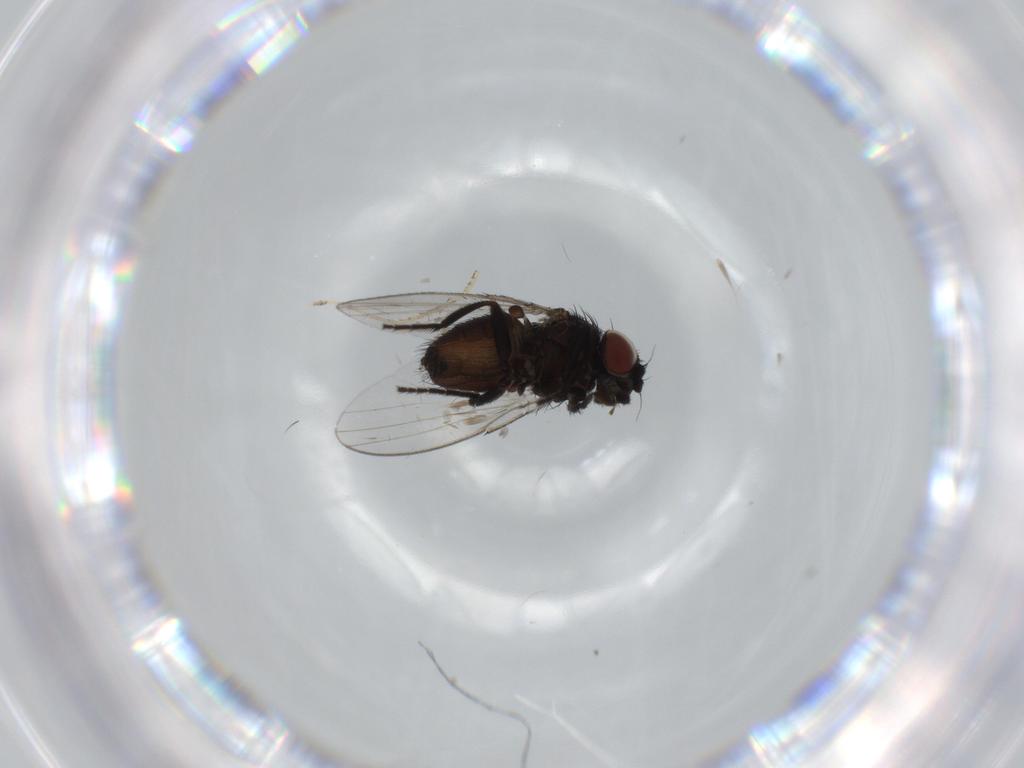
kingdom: Animalia
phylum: Arthropoda
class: Insecta
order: Diptera
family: Milichiidae
